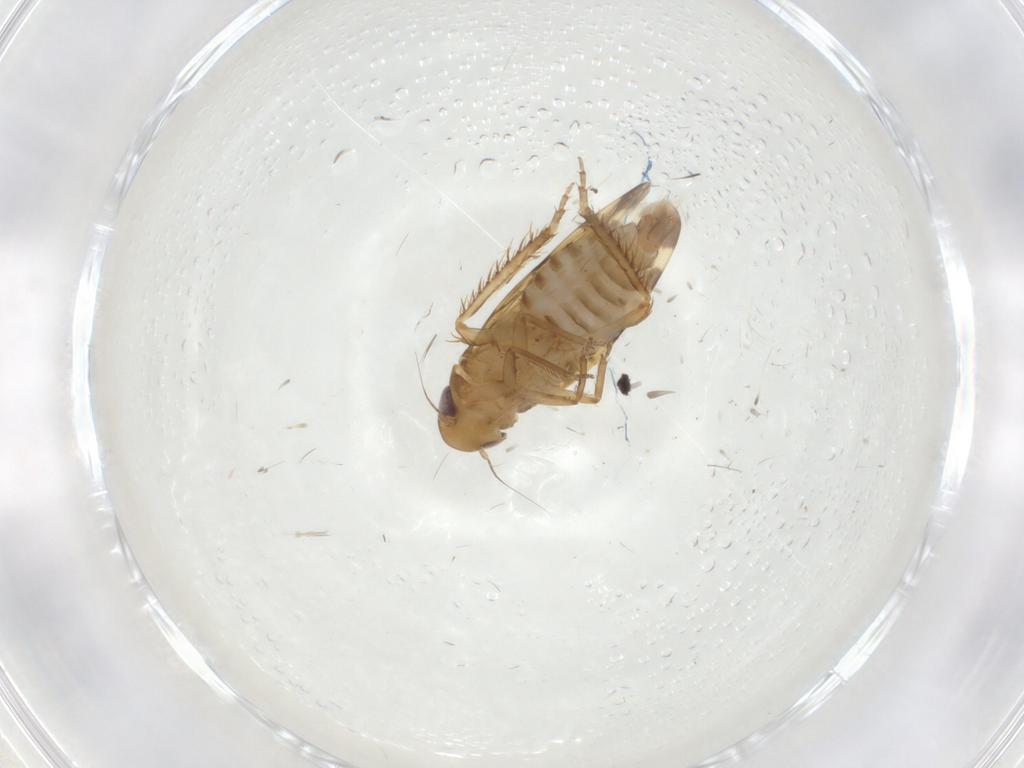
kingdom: Animalia
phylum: Arthropoda
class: Insecta
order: Hemiptera
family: Cicadellidae
